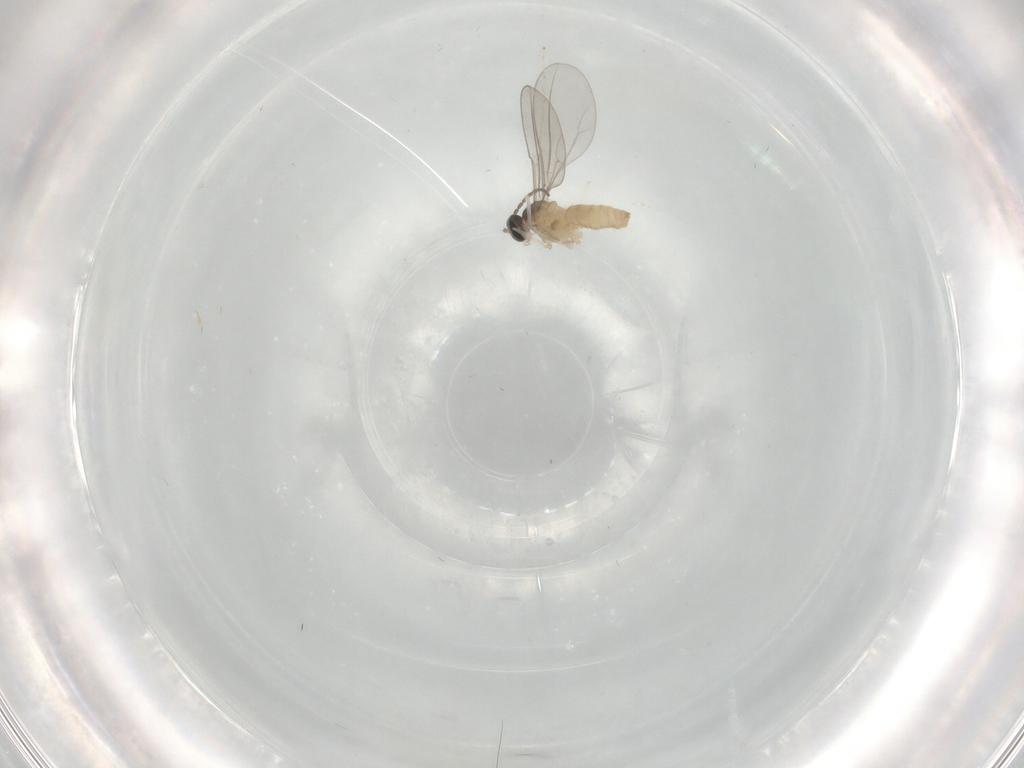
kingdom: Animalia
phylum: Arthropoda
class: Insecta
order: Diptera
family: Cecidomyiidae
